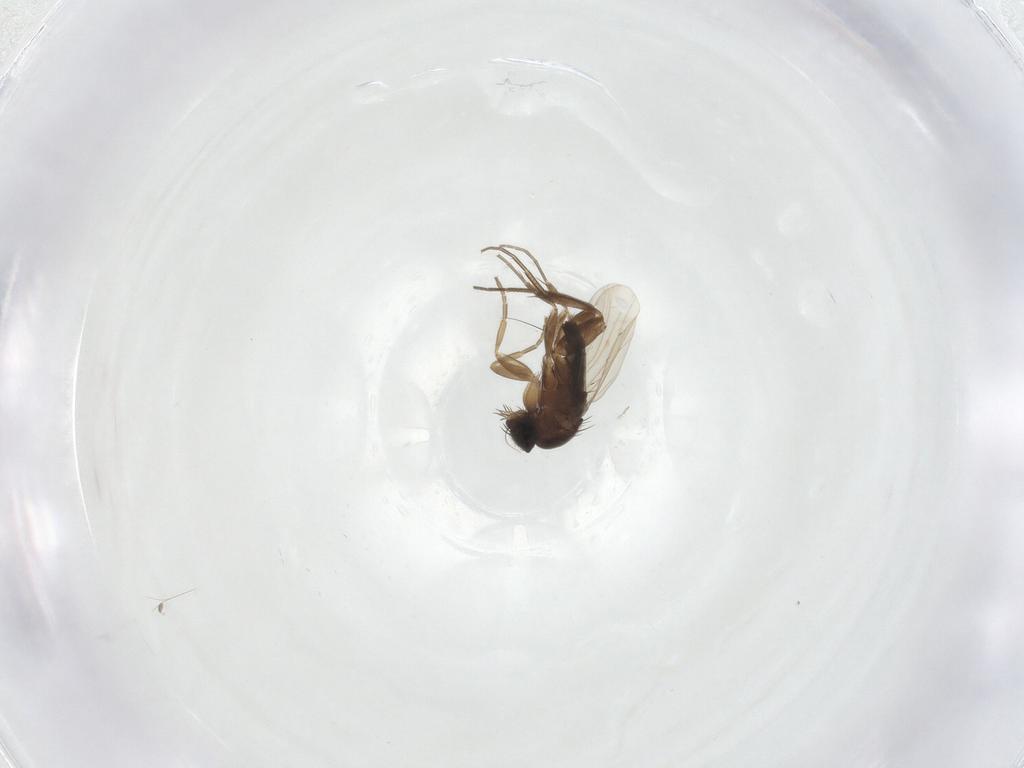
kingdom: Animalia
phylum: Arthropoda
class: Insecta
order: Diptera
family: Phoridae
